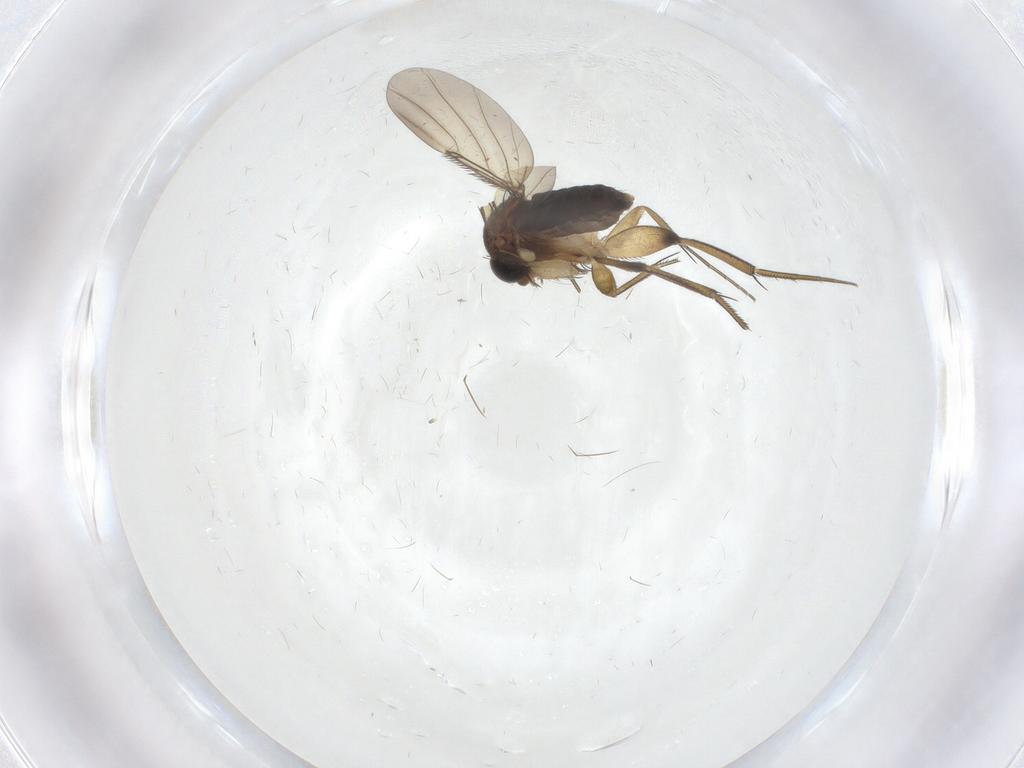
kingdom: Animalia
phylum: Arthropoda
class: Insecta
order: Diptera
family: Phoridae
